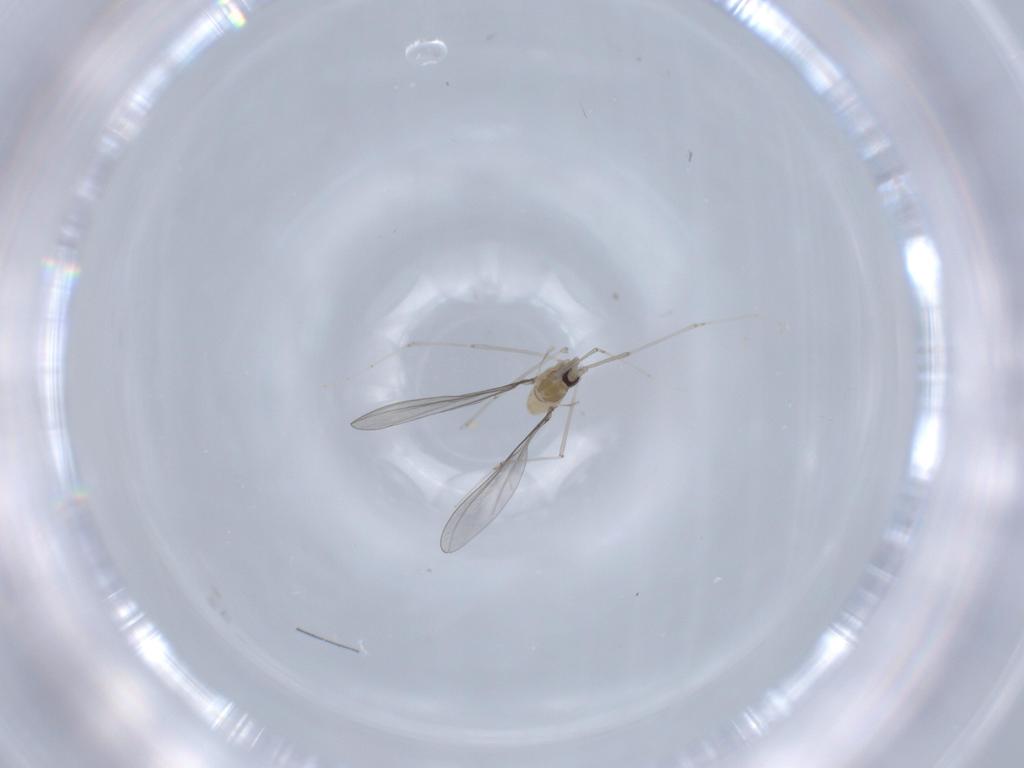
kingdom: Animalia
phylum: Arthropoda
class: Insecta
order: Diptera
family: Cecidomyiidae
